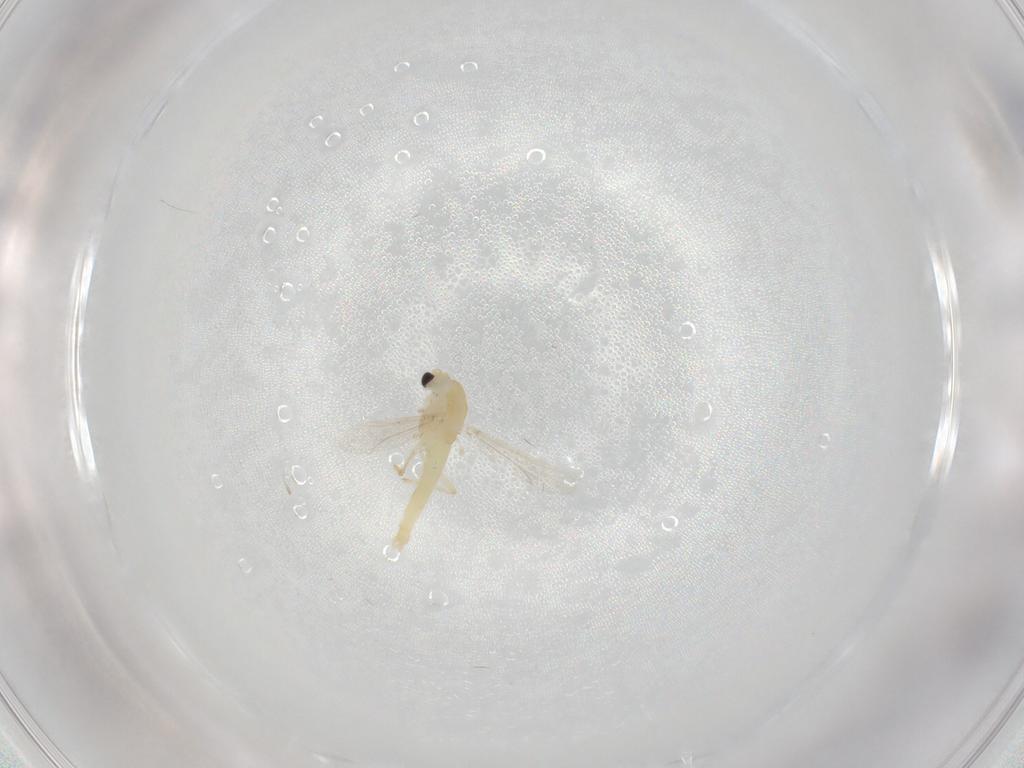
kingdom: Animalia
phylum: Arthropoda
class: Insecta
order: Diptera
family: Chironomidae
